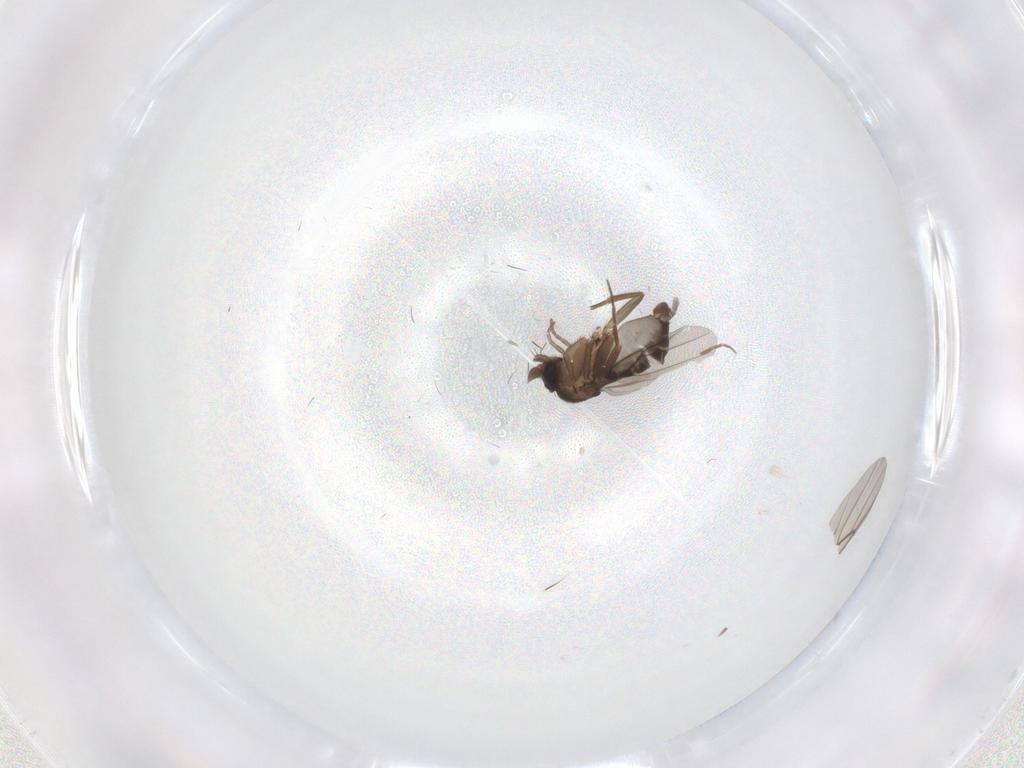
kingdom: Animalia
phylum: Arthropoda
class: Insecta
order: Diptera
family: Phoridae
